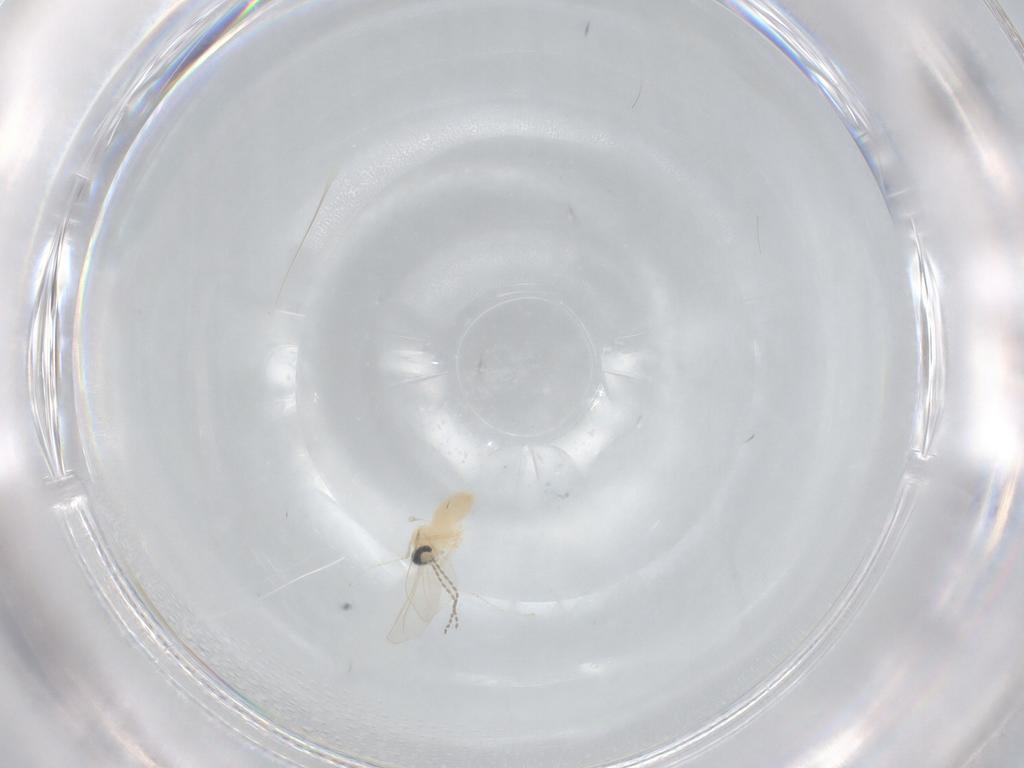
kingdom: Animalia
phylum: Arthropoda
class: Insecta
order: Diptera
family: Cecidomyiidae
